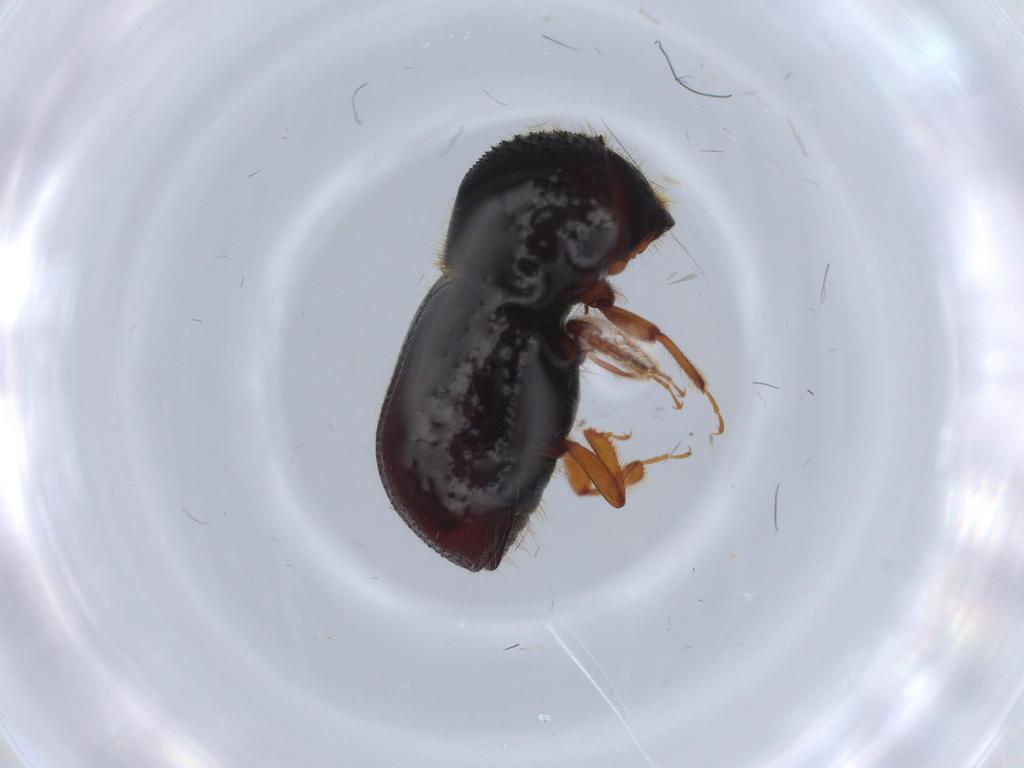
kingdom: Animalia
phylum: Arthropoda
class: Insecta
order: Coleoptera
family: Curculionidae
